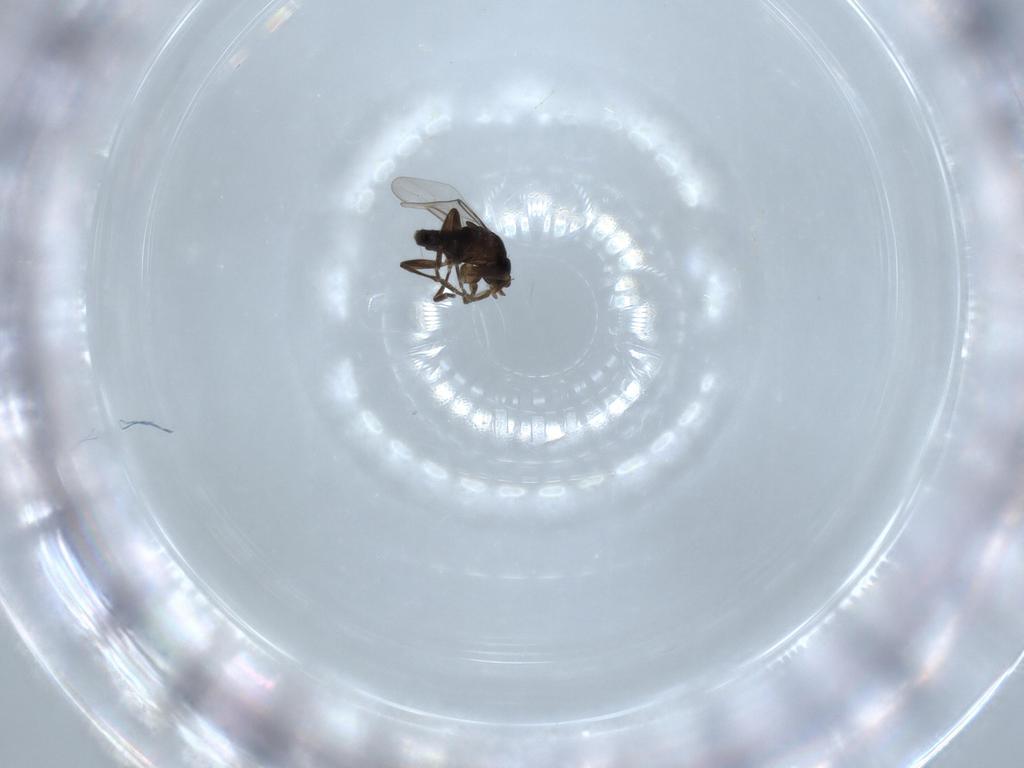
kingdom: Animalia
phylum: Arthropoda
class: Insecta
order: Diptera
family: Phoridae
